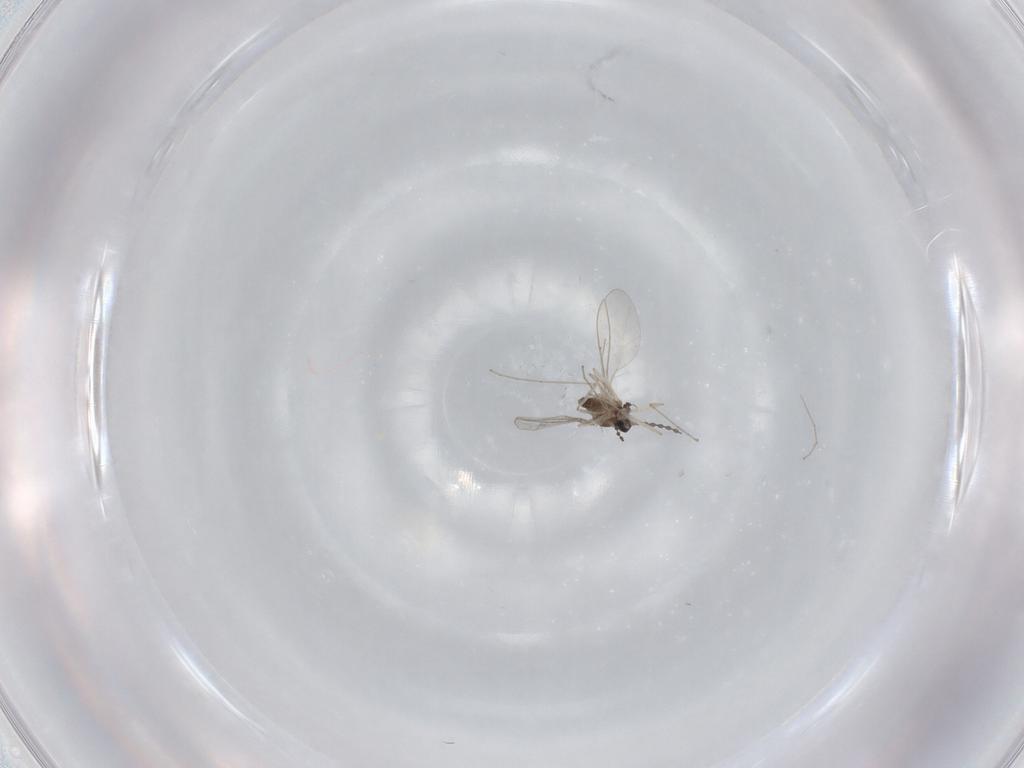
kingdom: Animalia
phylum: Arthropoda
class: Insecta
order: Diptera
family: Cecidomyiidae
